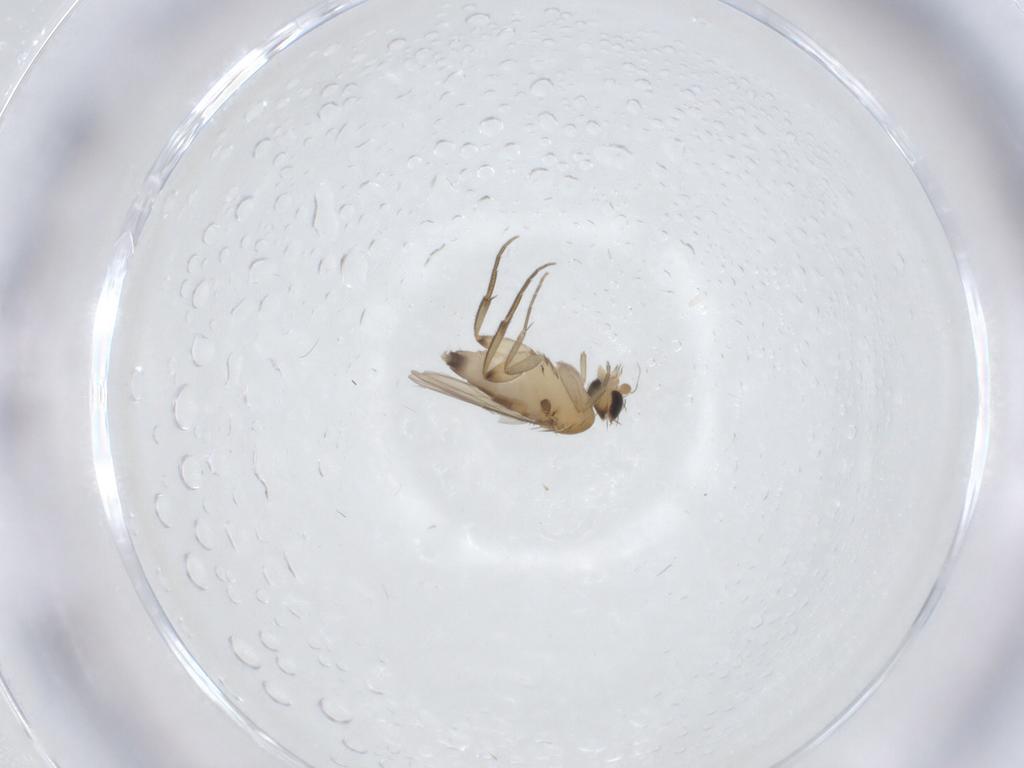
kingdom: Animalia
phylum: Arthropoda
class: Insecta
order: Diptera
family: Phoridae
